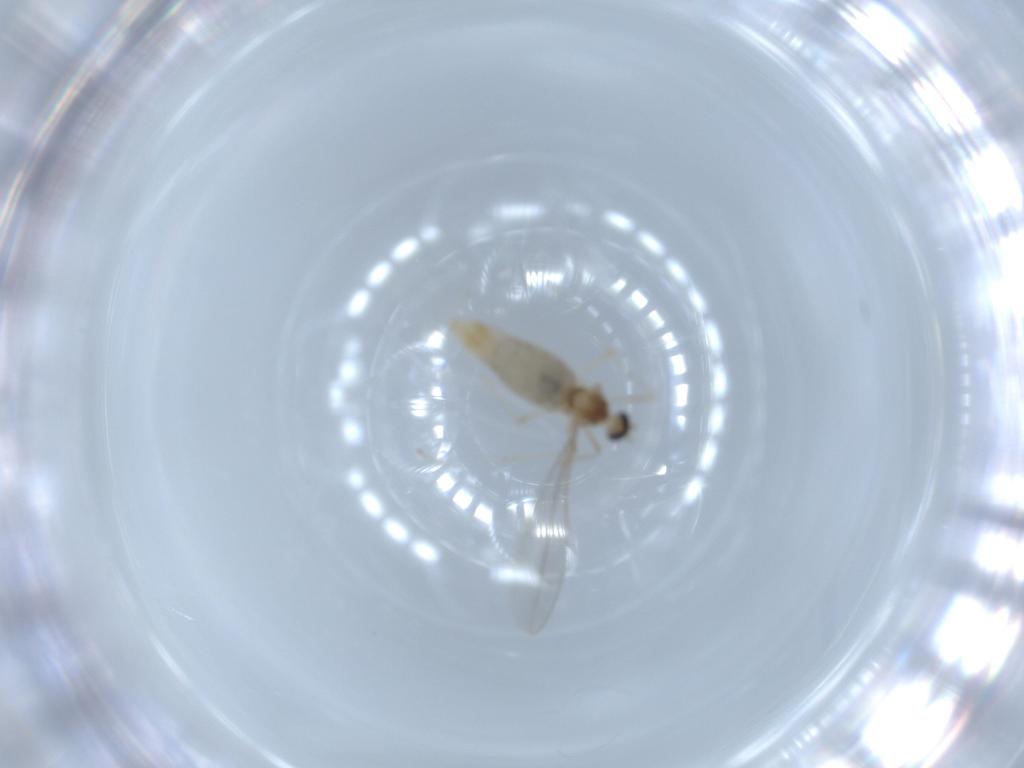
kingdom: Animalia
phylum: Arthropoda
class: Insecta
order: Diptera
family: Cecidomyiidae
